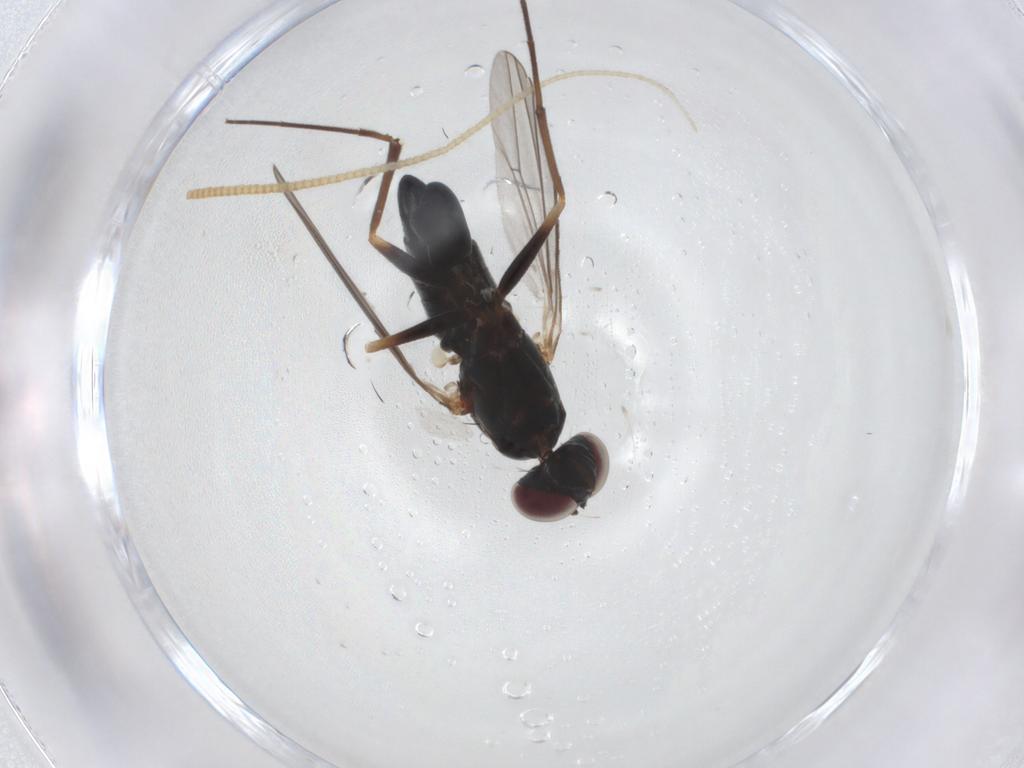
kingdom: Animalia
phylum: Arthropoda
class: Insecta
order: Diptera
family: Dolichopodidae
